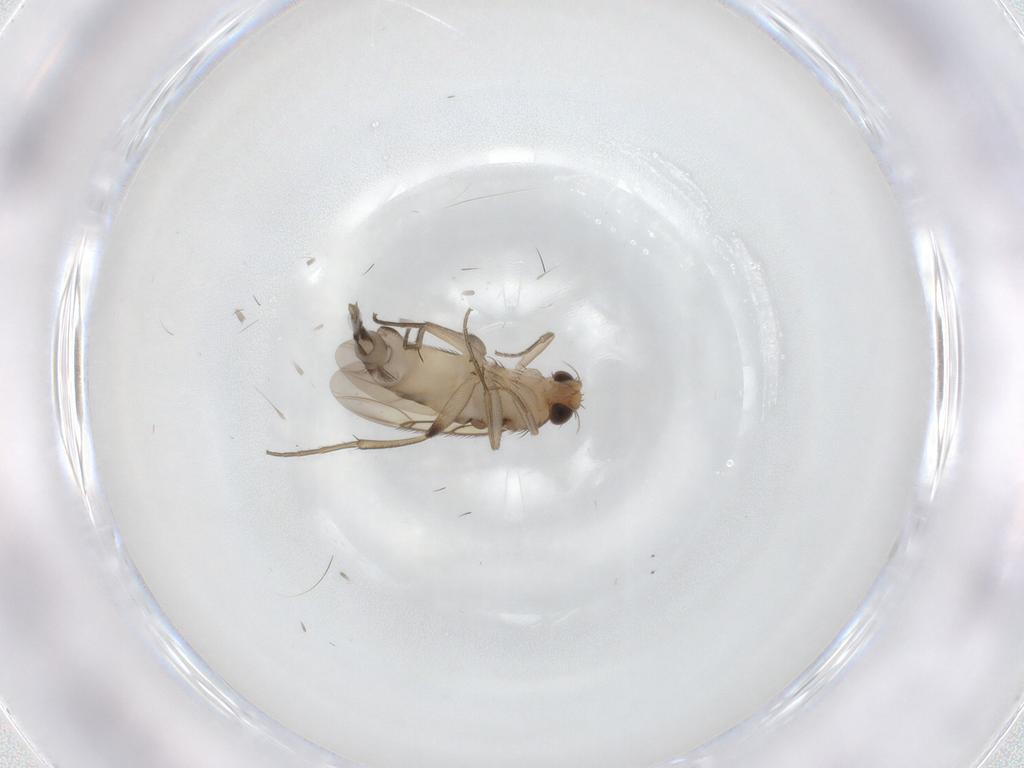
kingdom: Animalia
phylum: Arthropoda
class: Insecta
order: Diptera
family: Phoridae
